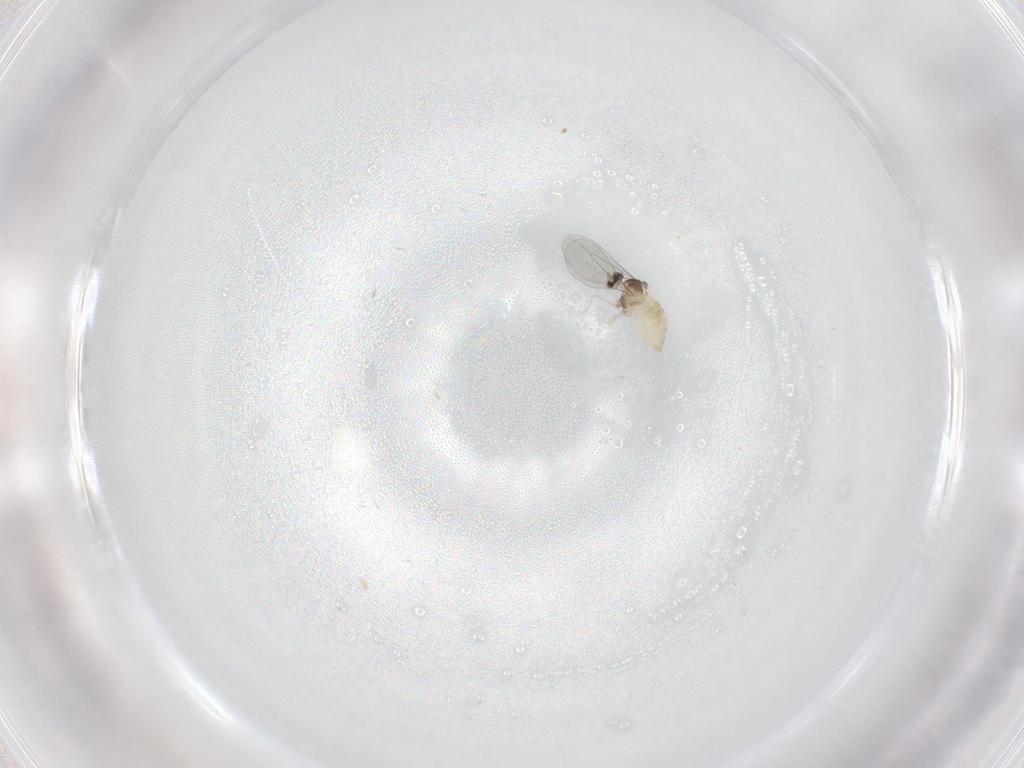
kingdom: Animalia
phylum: Arthropoda
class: Insecta
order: Diptera
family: Cecidomyiidae
